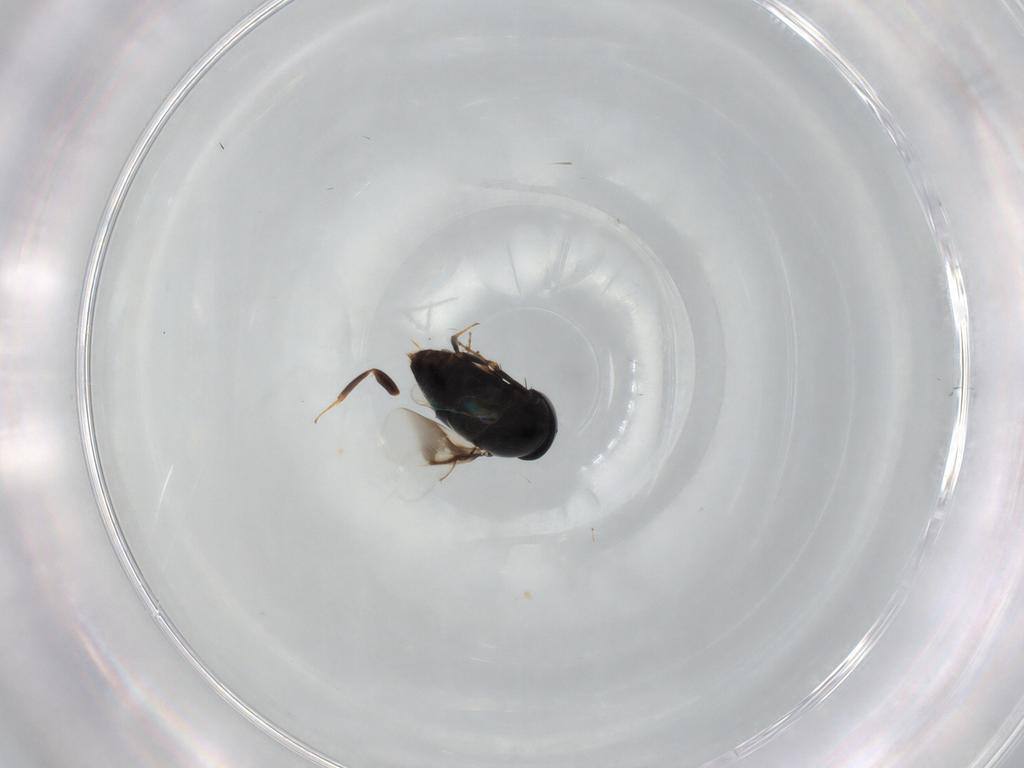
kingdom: Animalia
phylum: Arthropoda
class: Insecta
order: Hymenoptera
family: Signiphoridae
